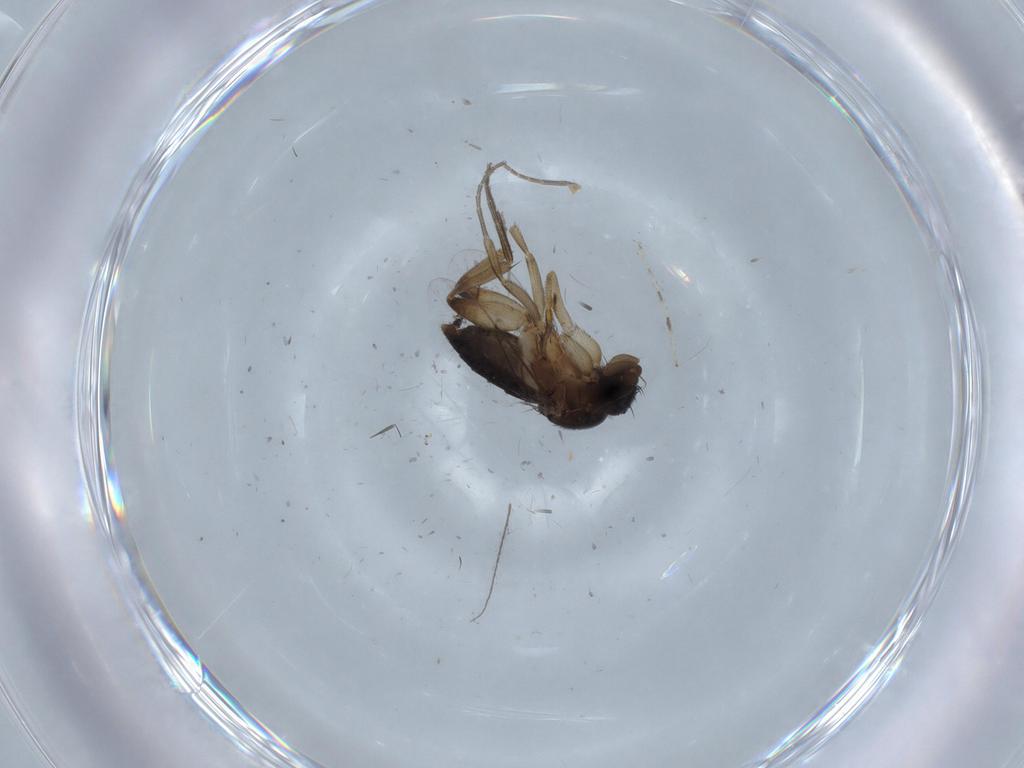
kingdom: Animalia
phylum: Arthropoda
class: Insecta
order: Diptera
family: Phoridae
